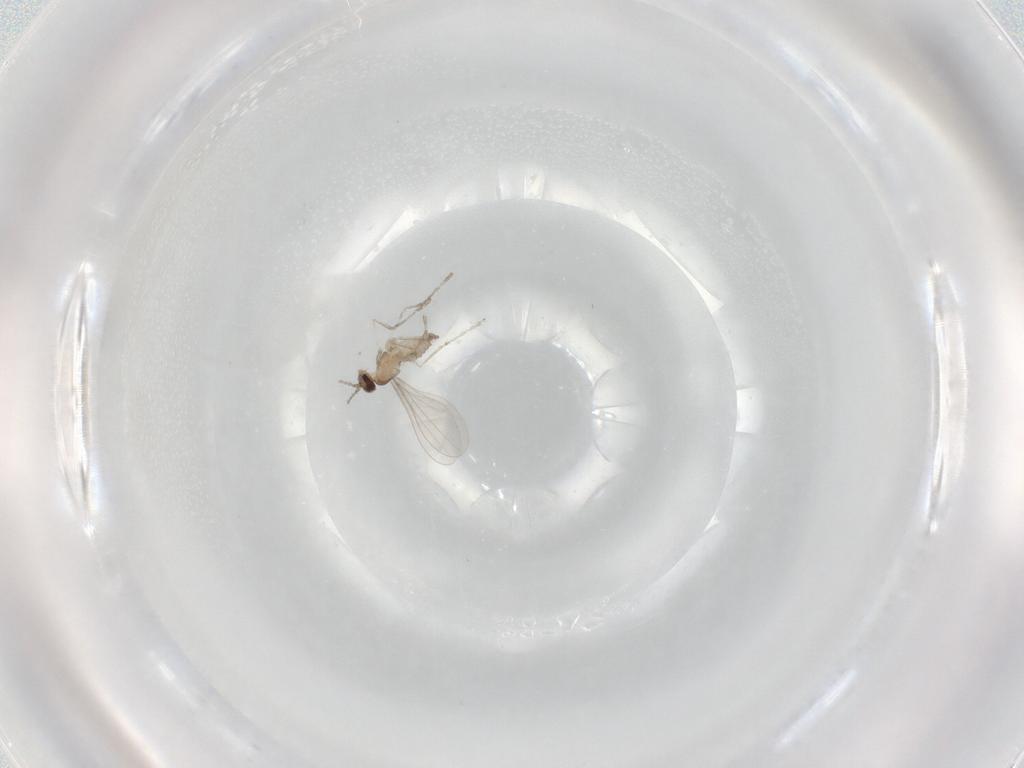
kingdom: Animalia
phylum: Arthropoda
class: Insecta
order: Diptera
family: Cecidomyiidae
